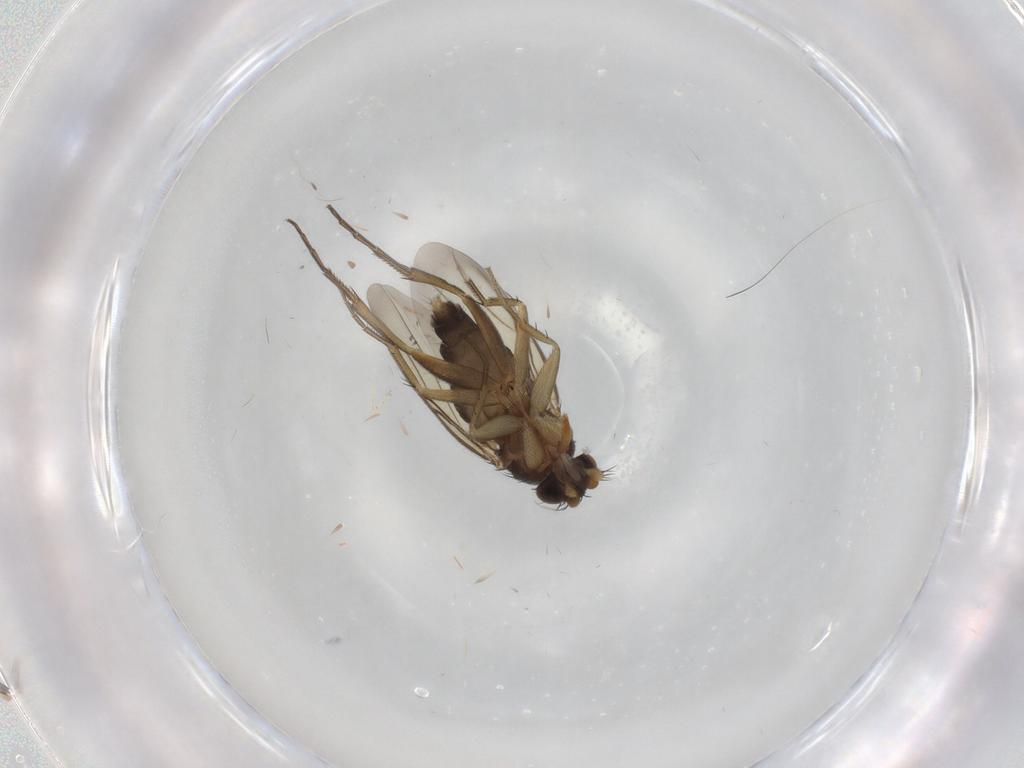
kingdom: Animalia
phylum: Arthropoda
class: Insecta
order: Diptera
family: Phoridae
